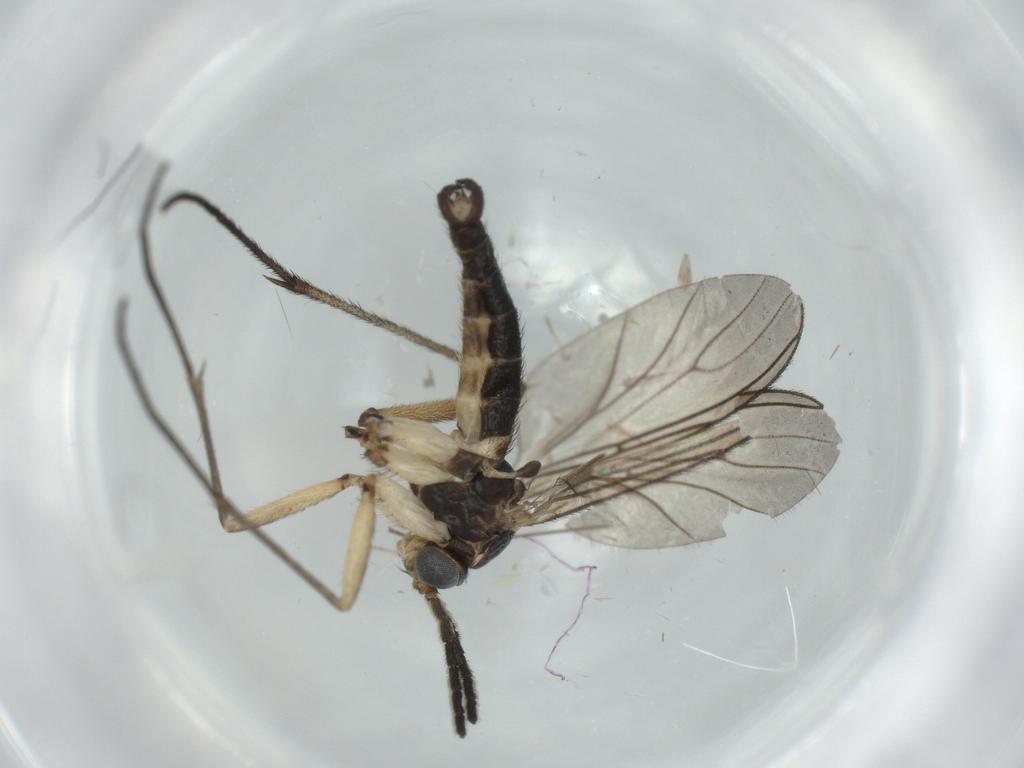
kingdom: Animalia
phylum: Arthropoda
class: Insecta
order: Diptera
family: Sciaridae
